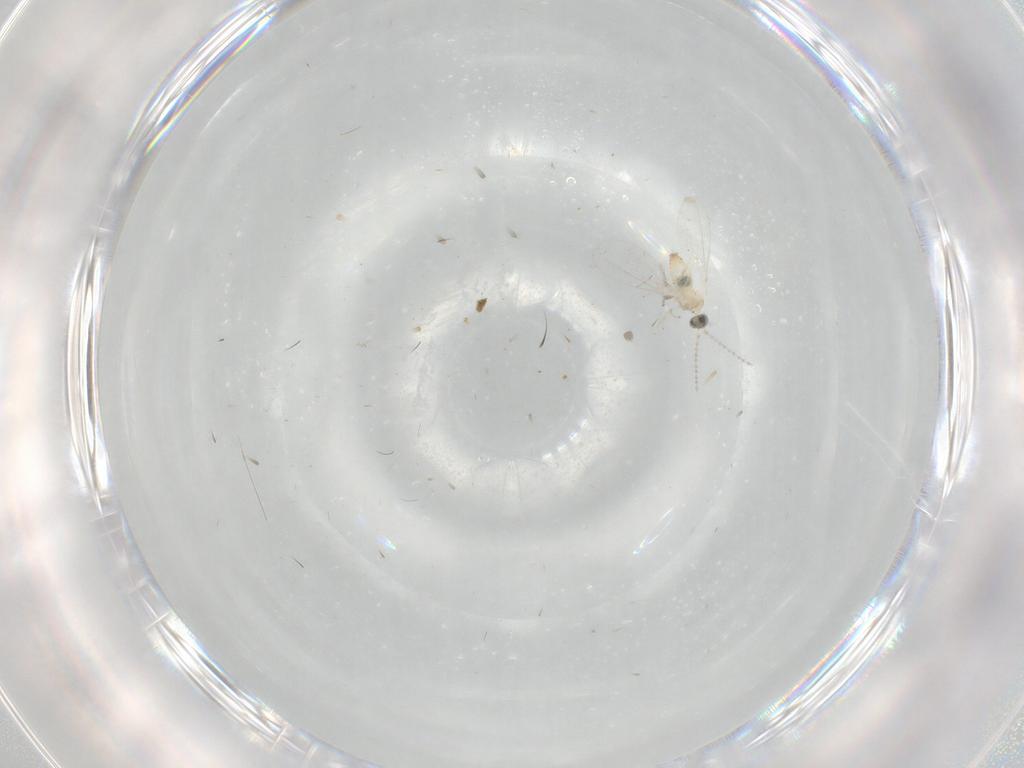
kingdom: Animalia
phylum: Arthropoda
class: Insecta
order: Diptera
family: Cecidomyiidae
